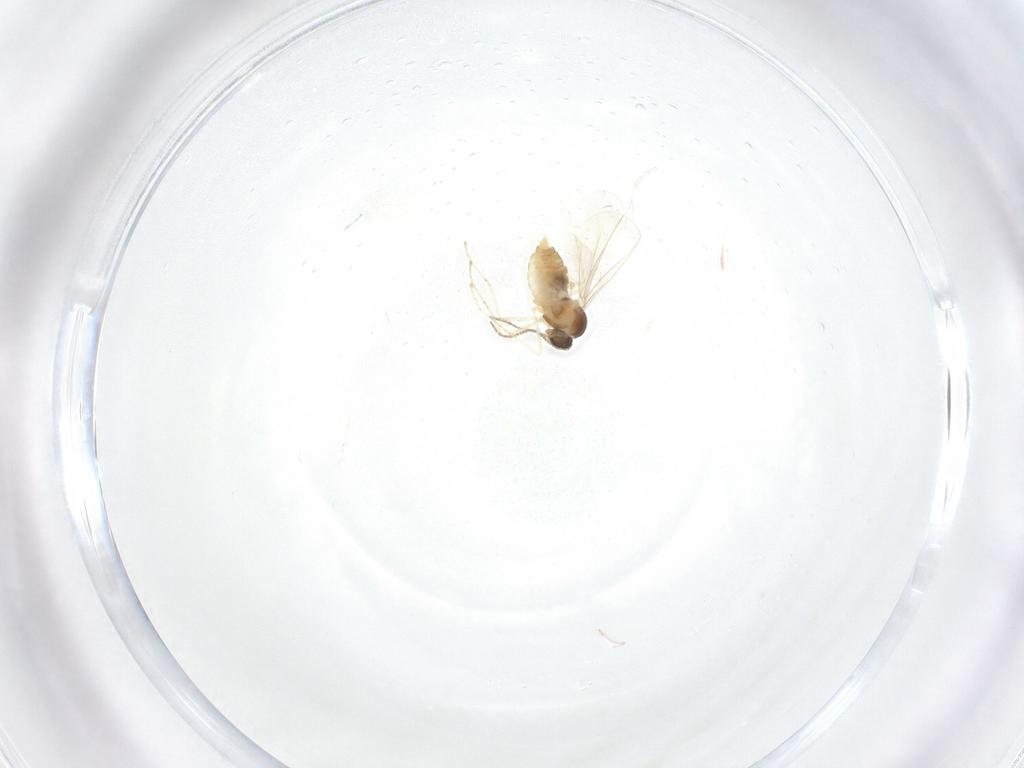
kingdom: Animalia
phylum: Arthropoda
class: Insecta
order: Diptera
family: Cecidomyiidae
